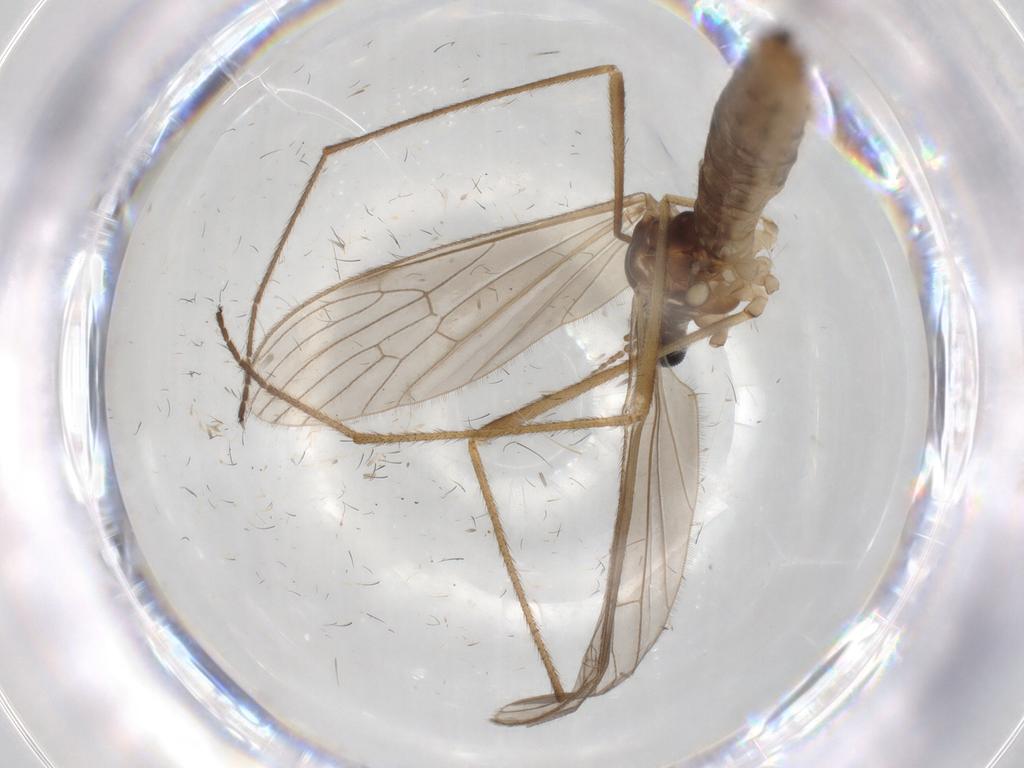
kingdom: Animalia
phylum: Arthropoda
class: Insecta
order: Diptera
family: Chironomidae
